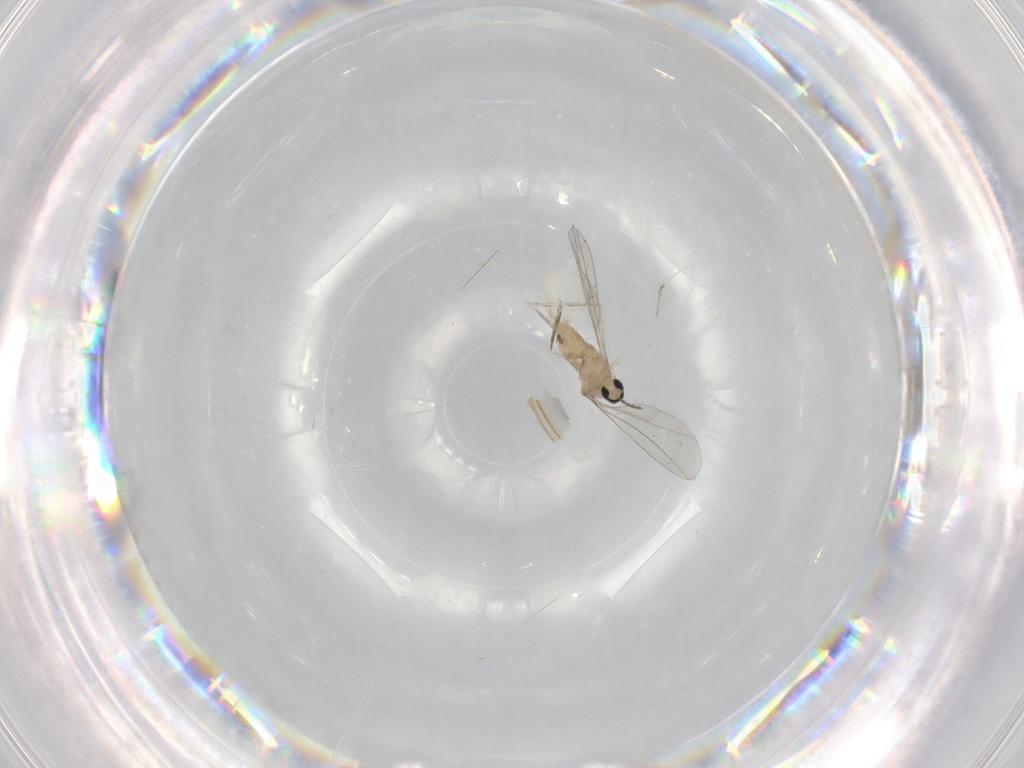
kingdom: Animalia
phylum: Arthropoda
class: Insecta
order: Diptera
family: Cecidomyiidae
